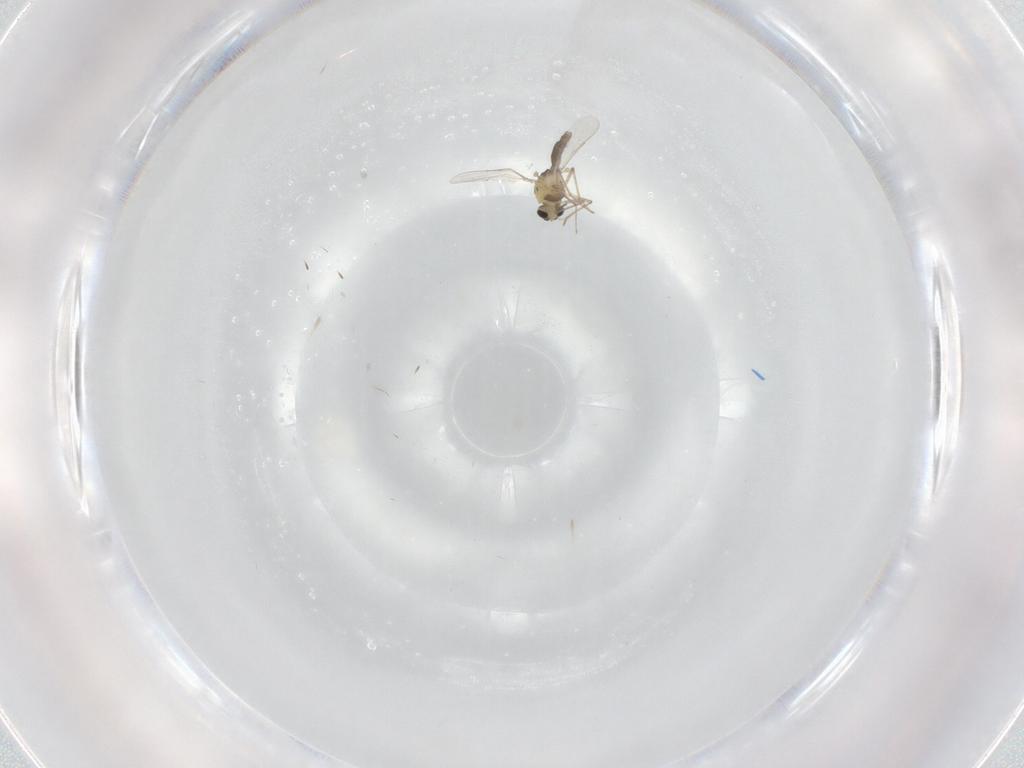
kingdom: Animalia
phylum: Arthropoda
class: Insecta
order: Diptera
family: Chironomidae
